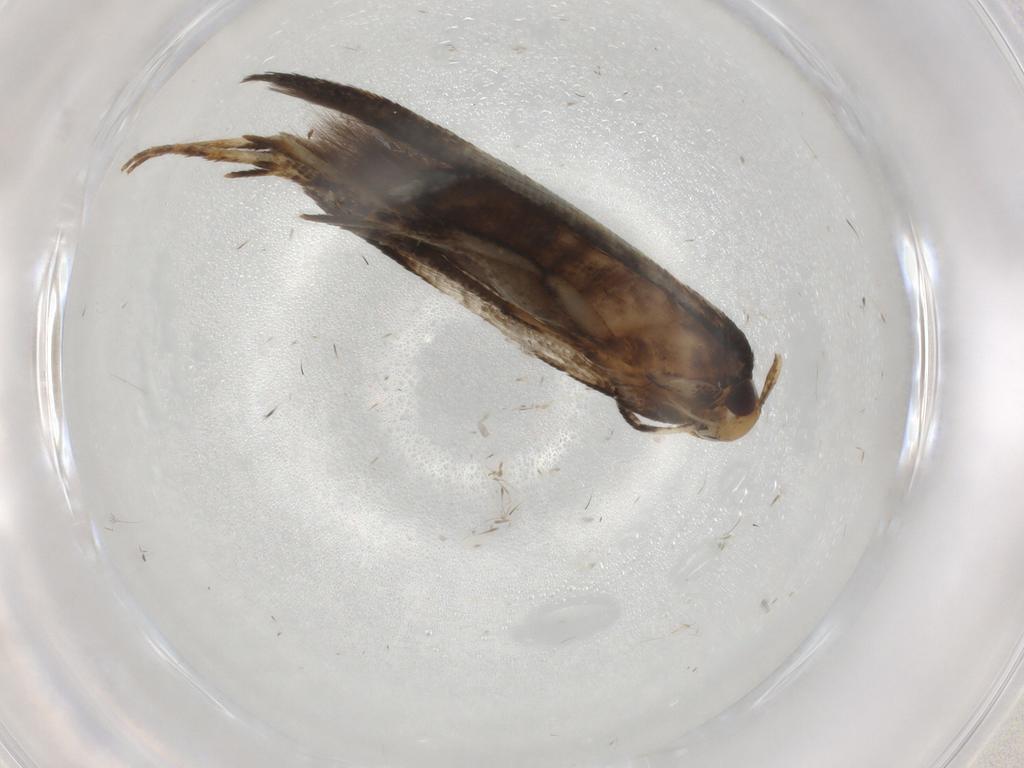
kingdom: Animalia
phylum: Arthropoda
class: Insecta
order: Lepidoptera
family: Cosmopterigidae
